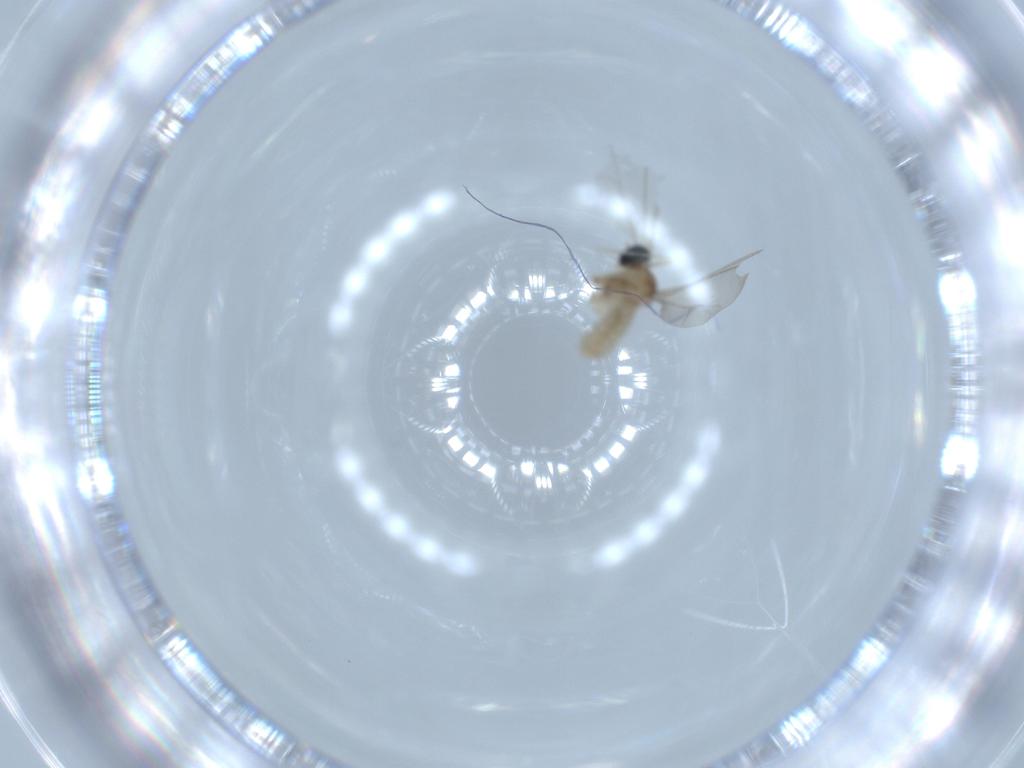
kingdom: Animalia
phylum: Arthropoda
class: Insecta
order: Diptera
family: Cecidomyiidae
